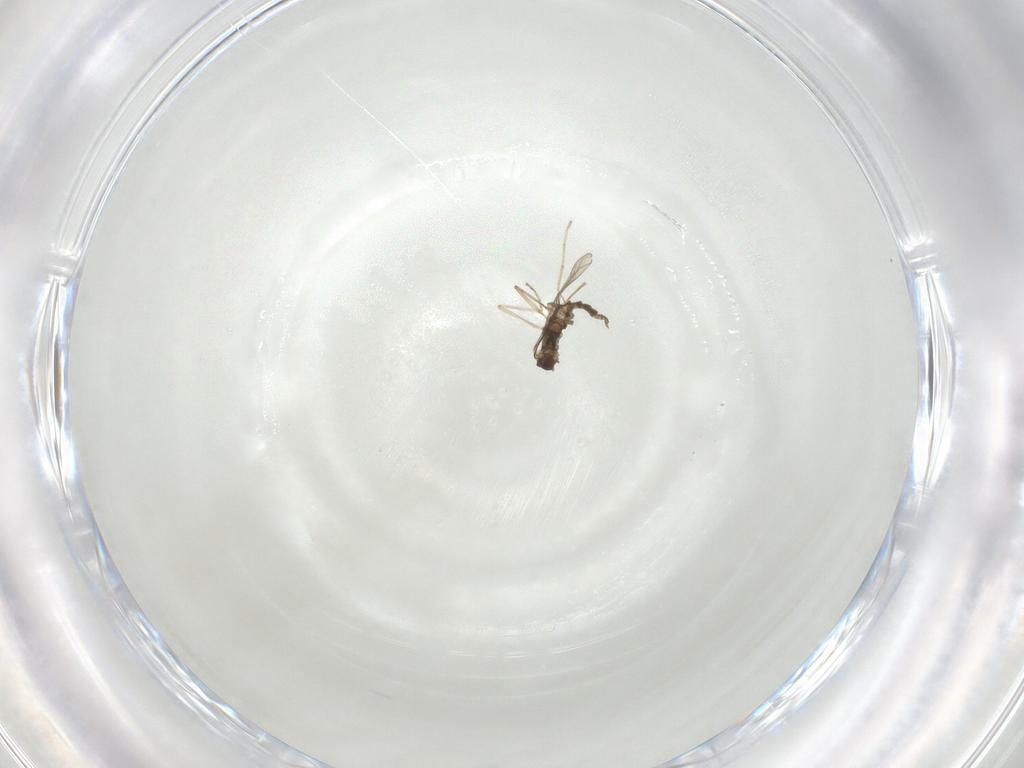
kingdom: Animalia
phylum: Arthropoda
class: Insecta
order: Diptera
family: Cecidomyiidae
